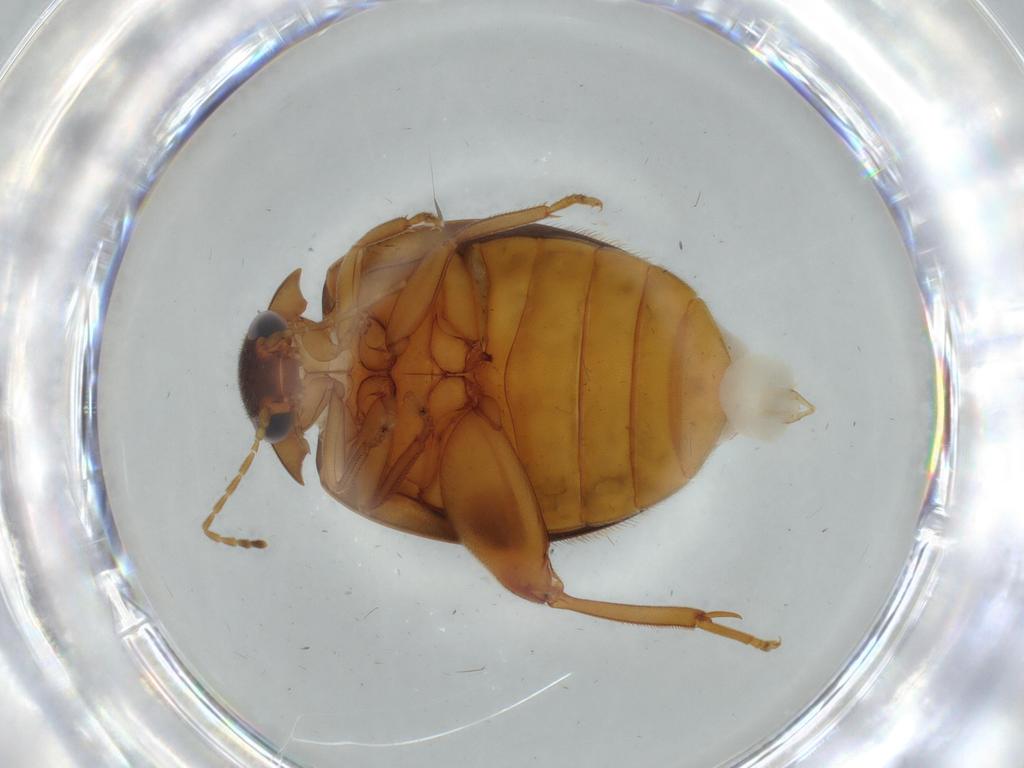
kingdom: Animalia
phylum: Arthropoda
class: Insecta
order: Coleoptera
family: Scirtidae
